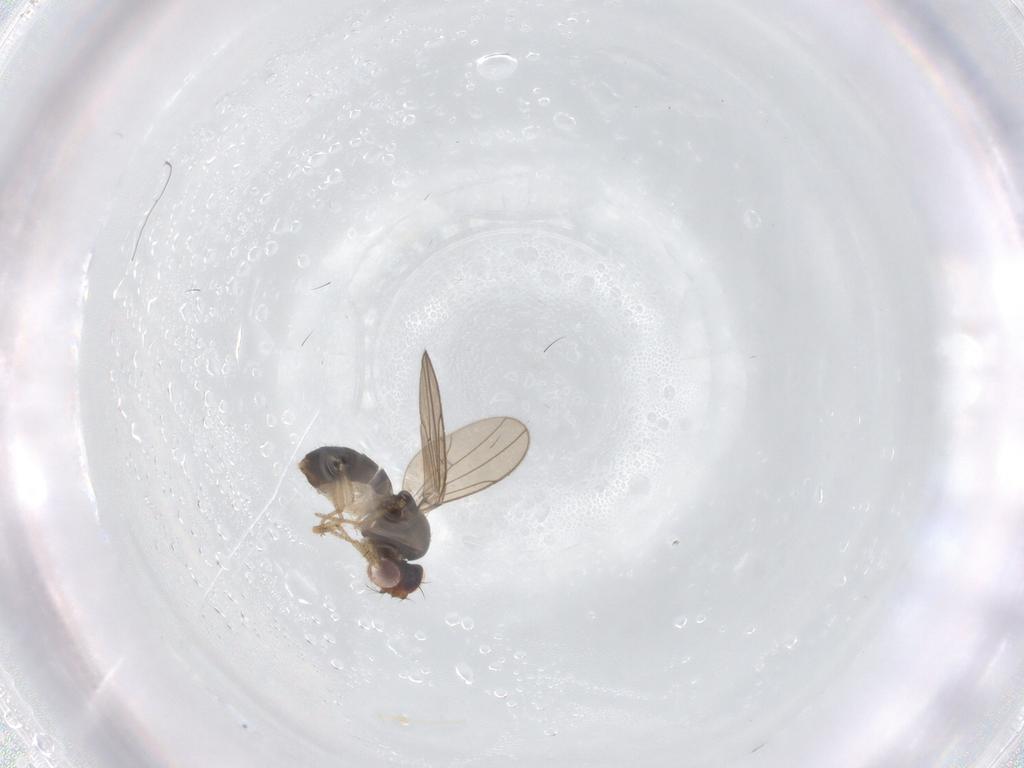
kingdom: Animalia
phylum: Arthropoda
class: Insecta
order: Diptera
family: Drosophilidae
